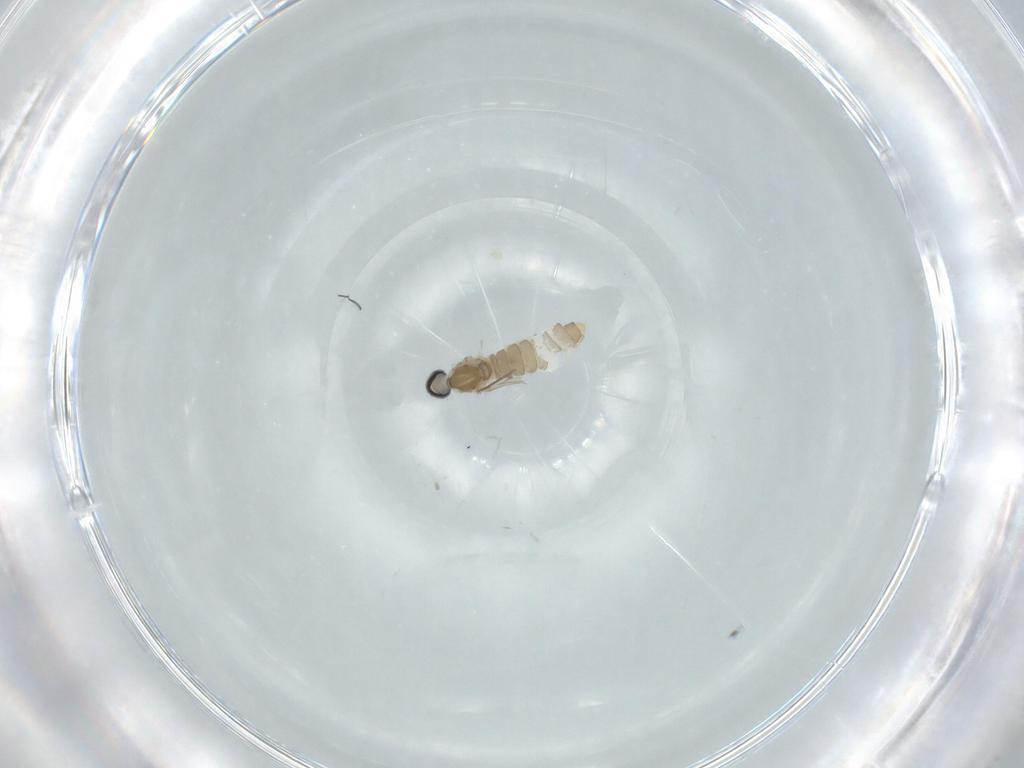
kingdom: Animalia
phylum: Arthropoda
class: Insecta
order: Diptera
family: Cecidomyiidae
